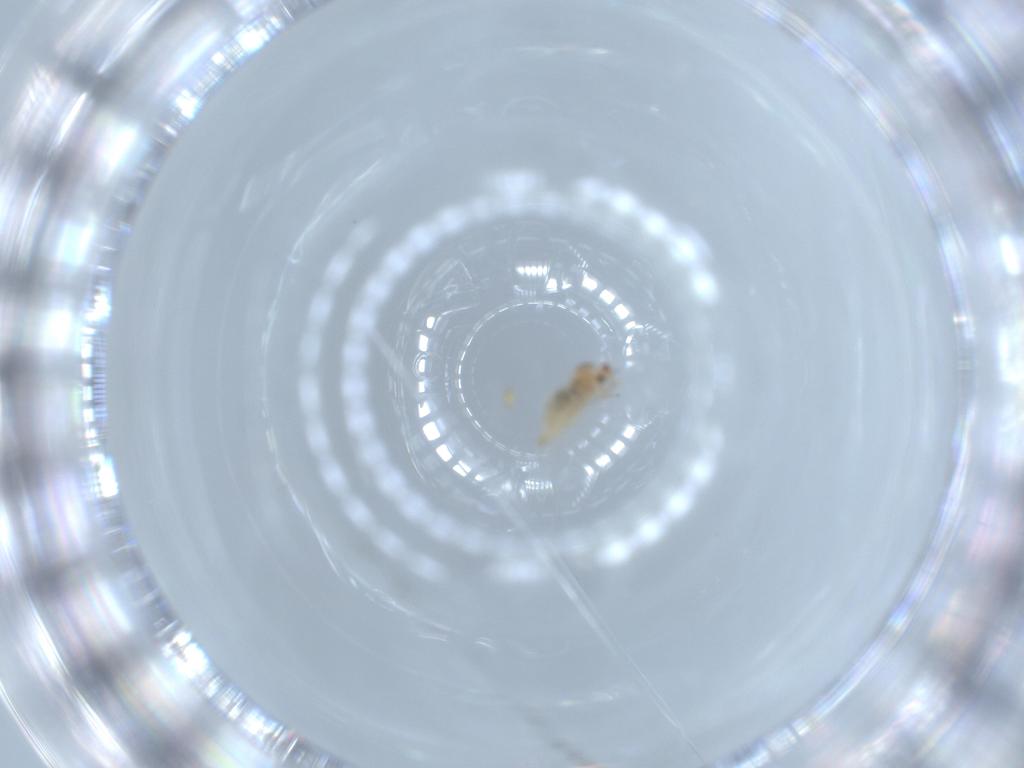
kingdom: Animalia
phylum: Arthropoda
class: Insecta
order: Diptera
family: Cecidomyiidae
